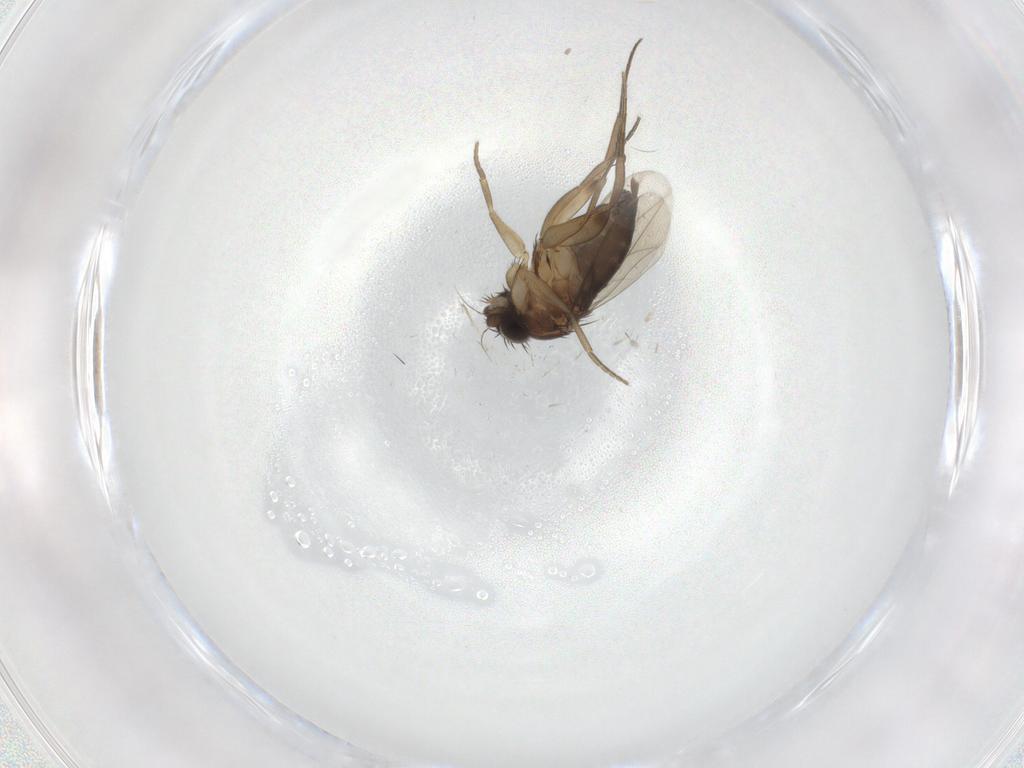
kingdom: Animalia
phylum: Arthropoda
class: Insecta
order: Diptera
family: Chironomidae
